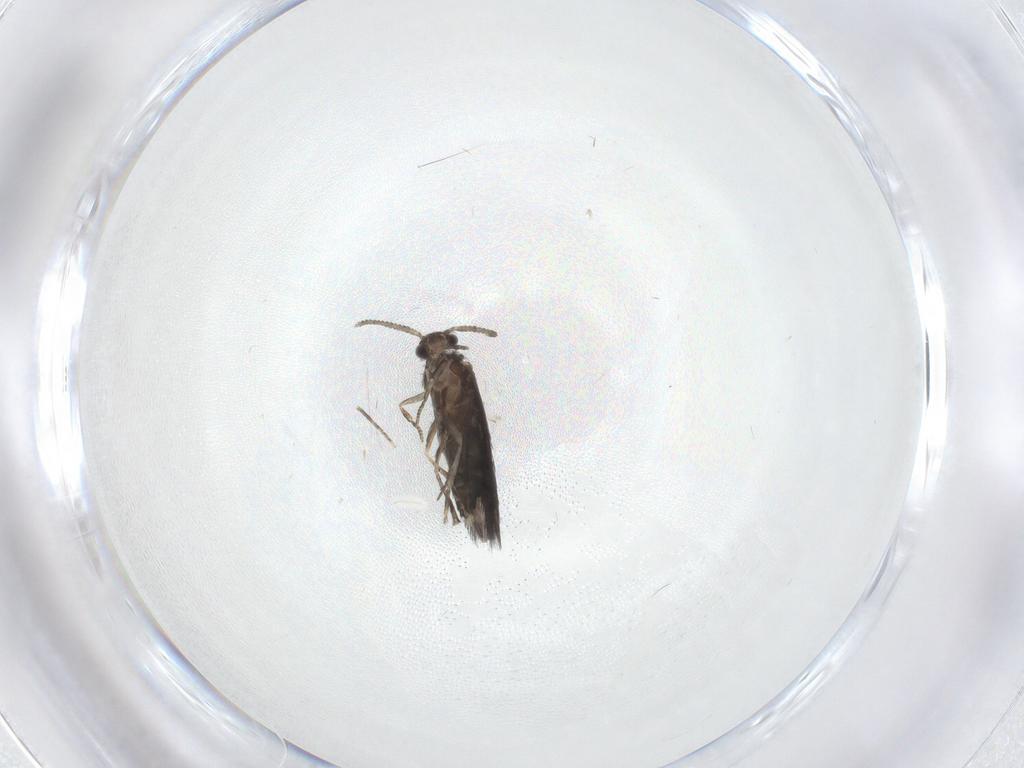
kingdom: Animalia
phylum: Arthropoda
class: Insecta
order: Trichoptera
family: Hydroptilidae
